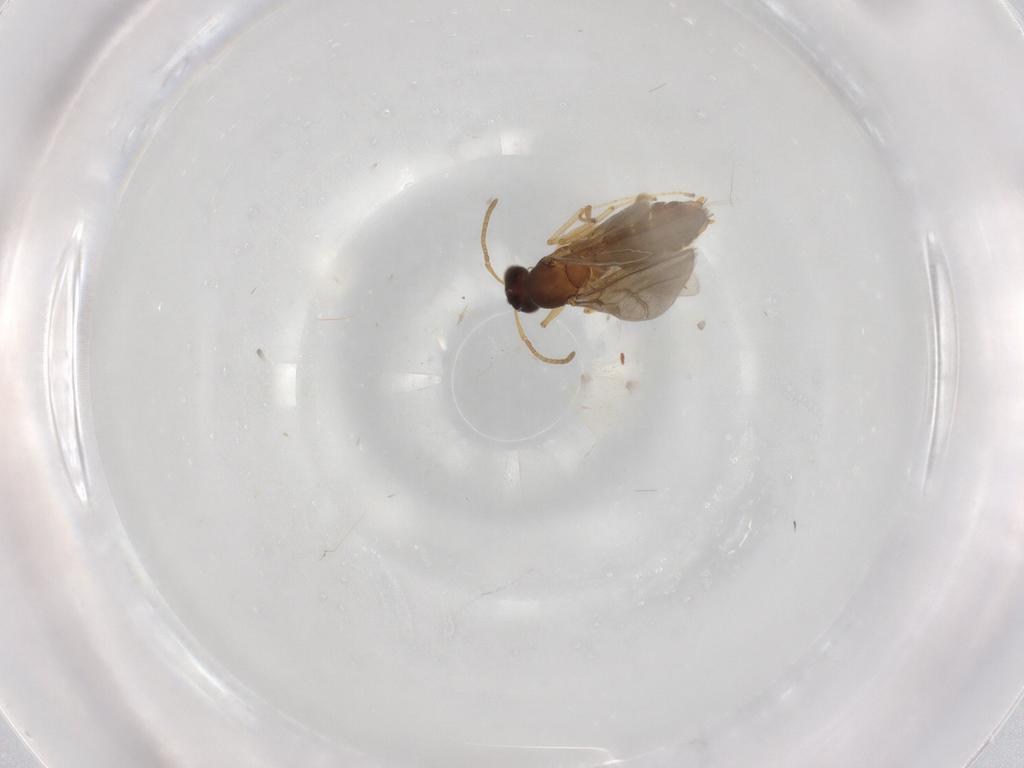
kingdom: Animalia
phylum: Arthropoda
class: Insecta
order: Hymenoptera
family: Formicidae
